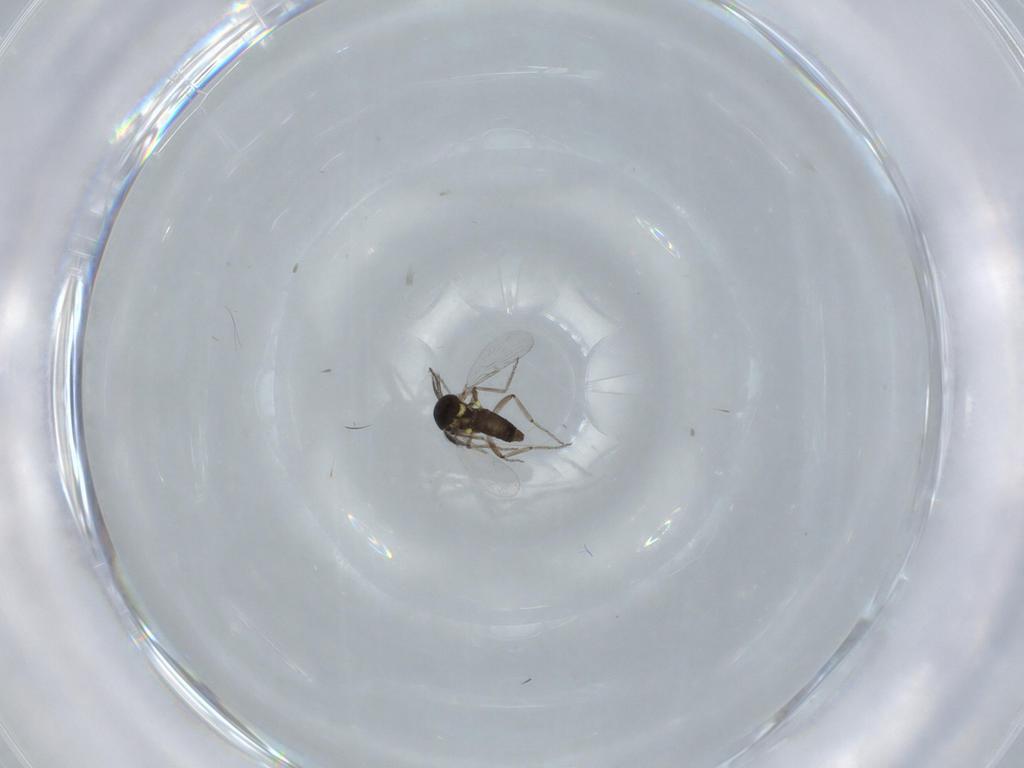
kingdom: Animalia
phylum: Arthropoda
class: Insecta
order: Diptera
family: Ceratopogonidae
